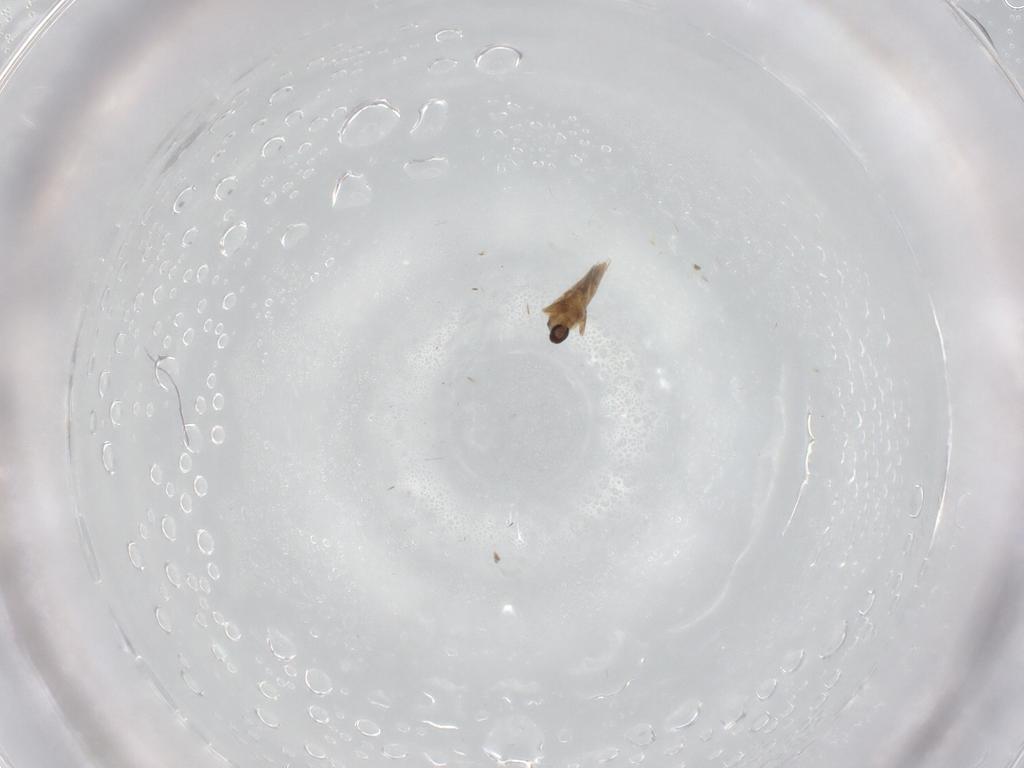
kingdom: Animalia
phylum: Arthropoda
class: Insecta
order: Diptera
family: Cecidomyiidae
